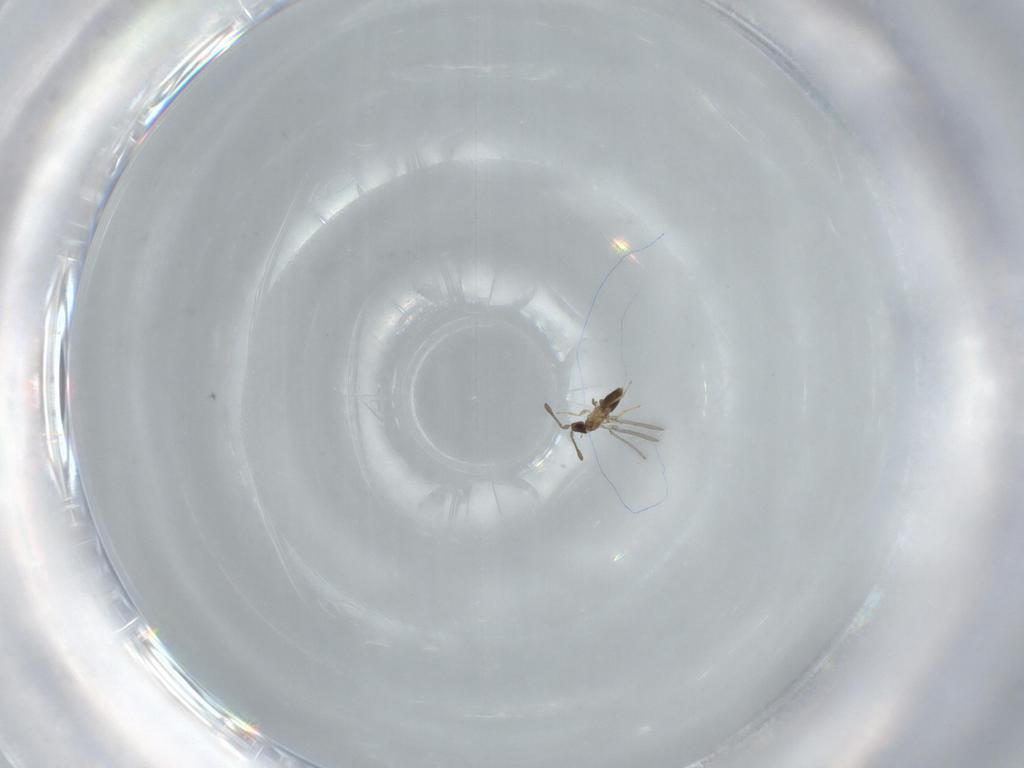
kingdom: Animalia
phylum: Arthropoda
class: Insecta
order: Hymenoptera
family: Mymaridae
